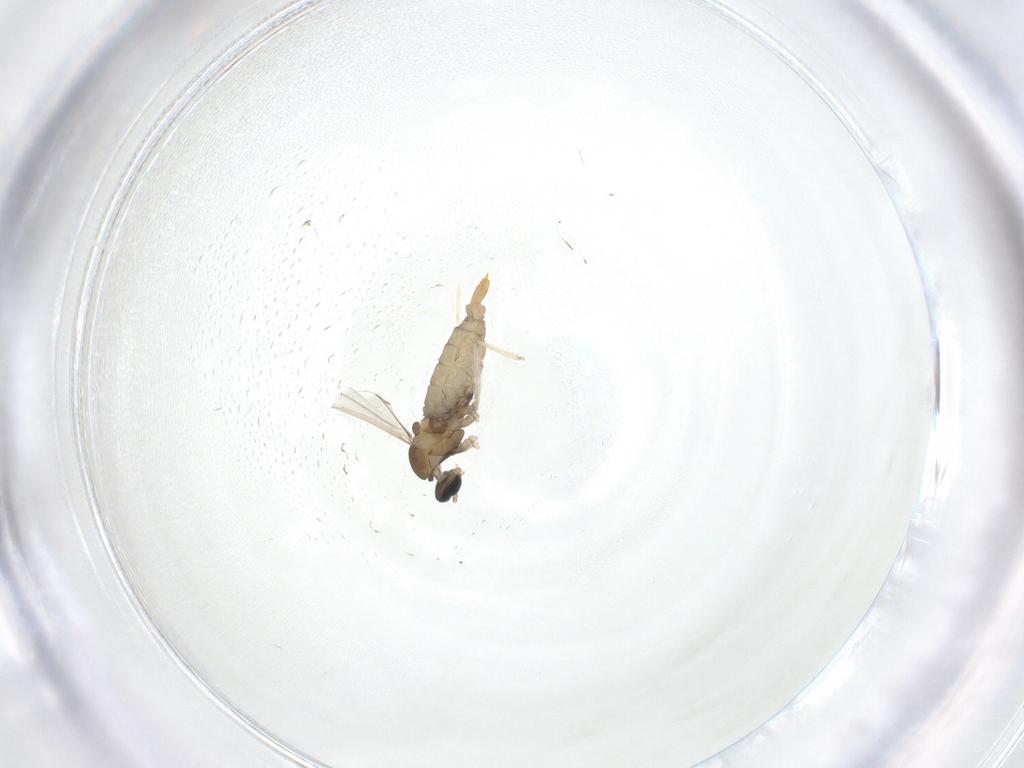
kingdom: Animalia
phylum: Arthropoda
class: Insecta
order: Diptera
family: Cecidomyiidae
